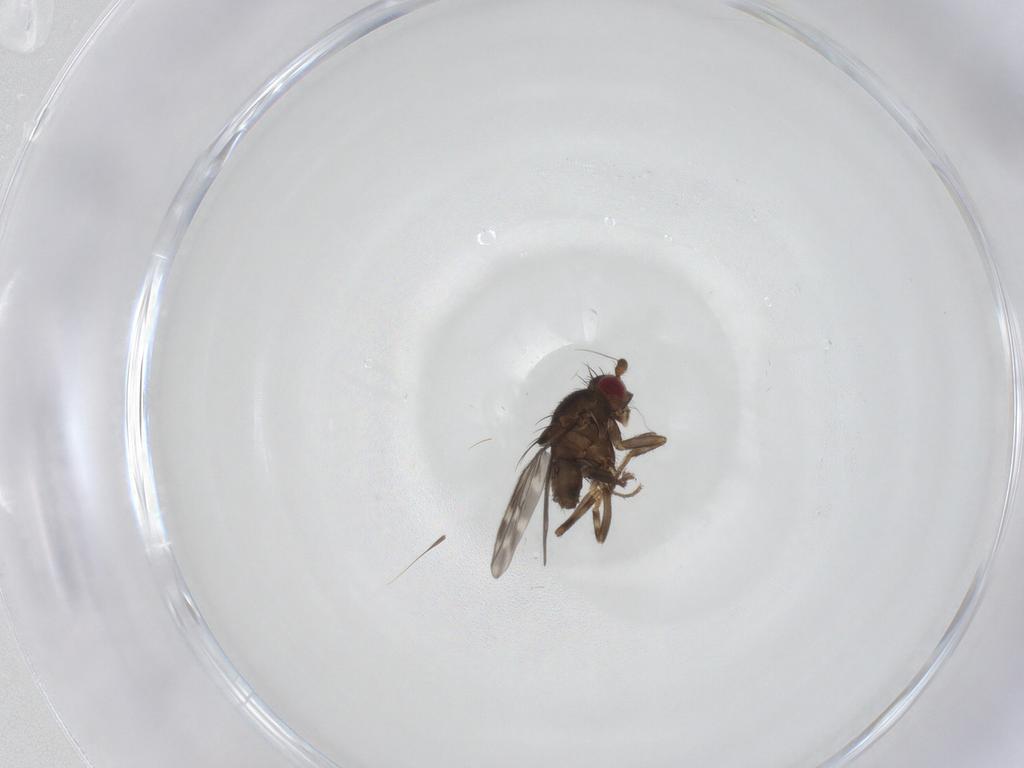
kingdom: Animalia
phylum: Arthropoda
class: Insecta
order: Diptera
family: Sphaeroceridae
